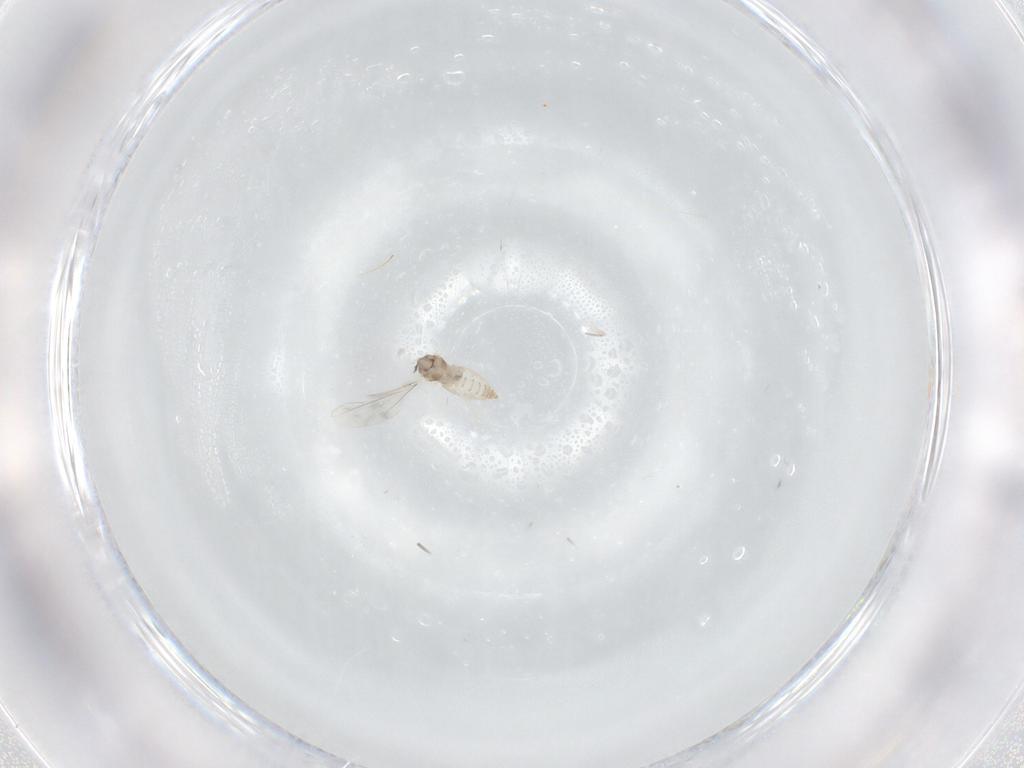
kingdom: Animalia
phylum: Arthropoda
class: Insecta
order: Diptera
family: Cecidomyiidae
